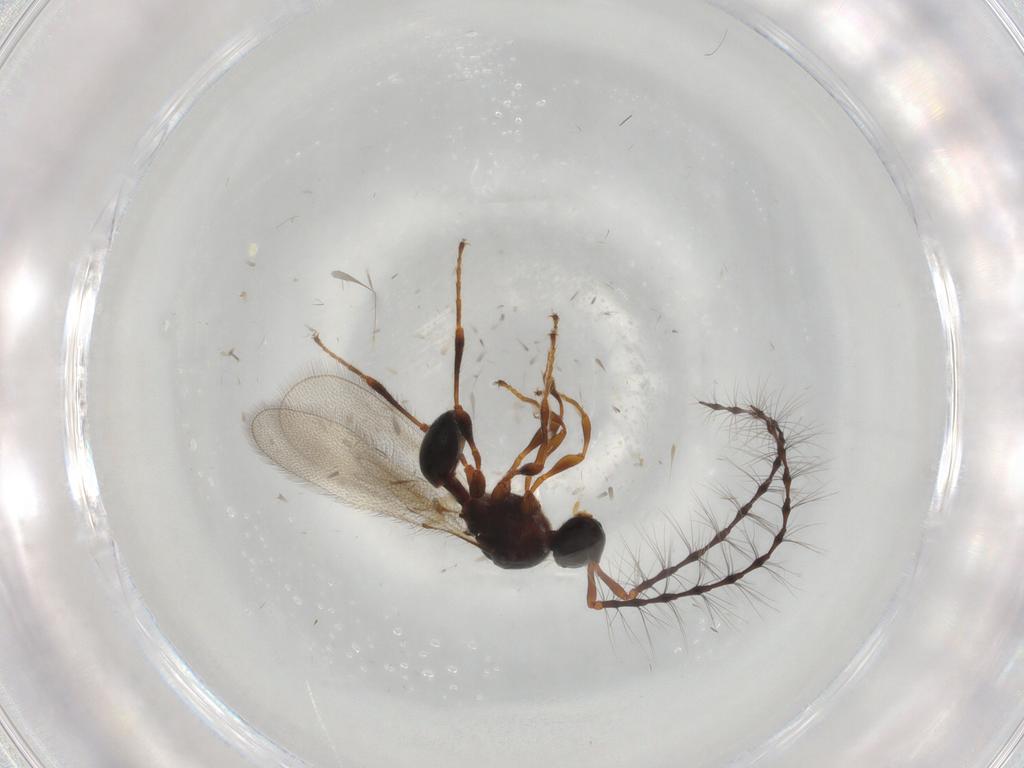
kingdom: Animalia
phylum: Arthropoda
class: Insecta
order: Hymenoptera
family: Diapriidae
